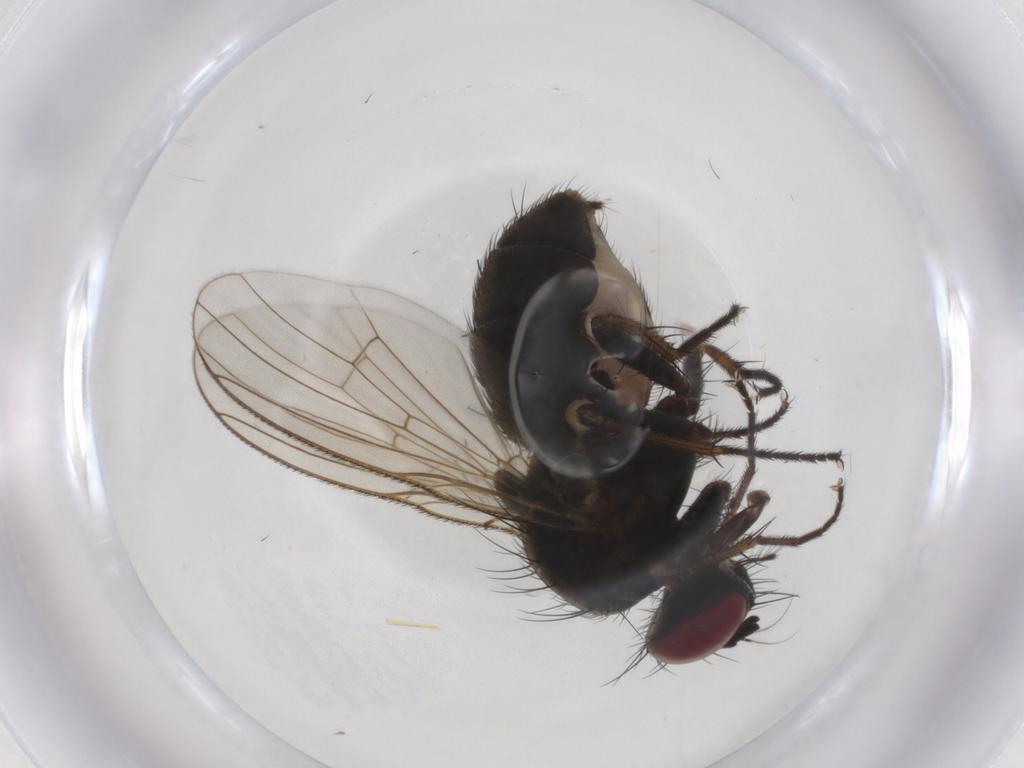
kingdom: Animalia
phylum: Arthropoda
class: Insecta
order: Diptera
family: Muscidae
